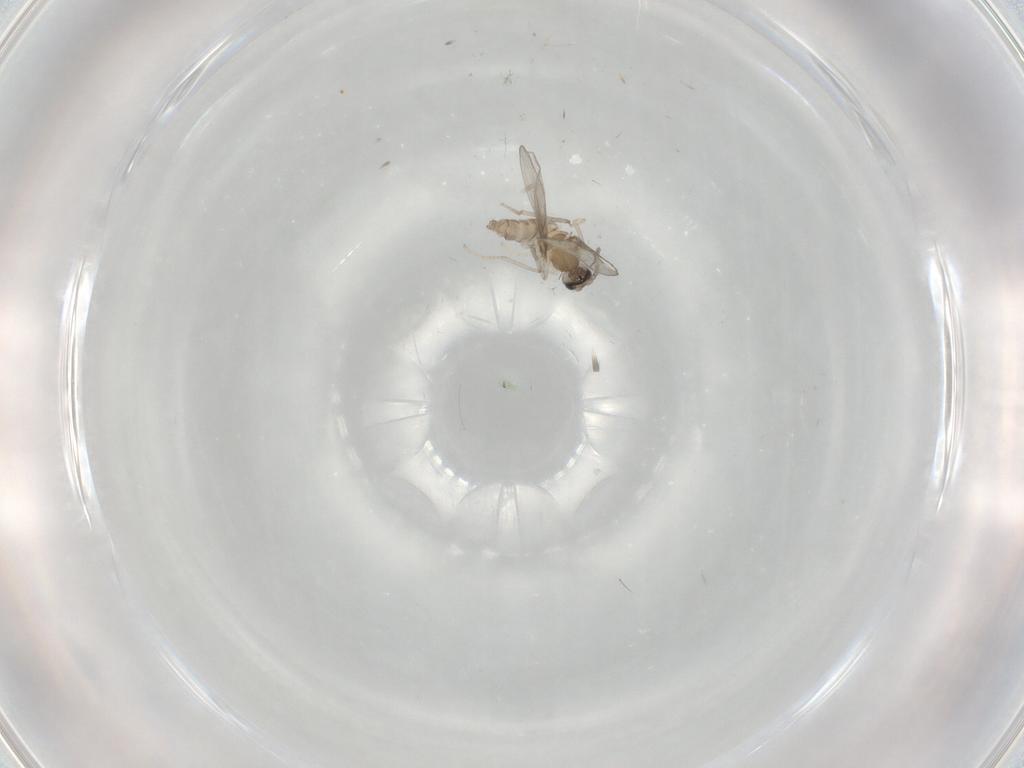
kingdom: Animalia
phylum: Arthropoda
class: Insecta
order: Diptera
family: Cecidomyiidae
